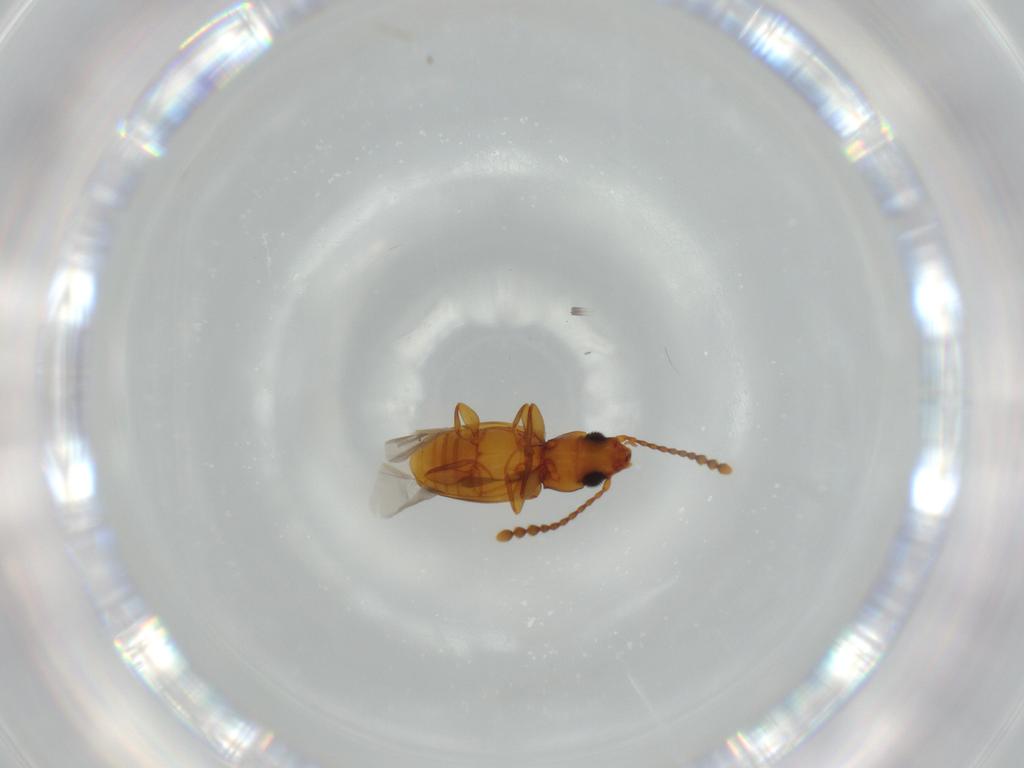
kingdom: Animalia
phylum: Arthropoda
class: Insecta
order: Coleoptera
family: Laemophloeidae
